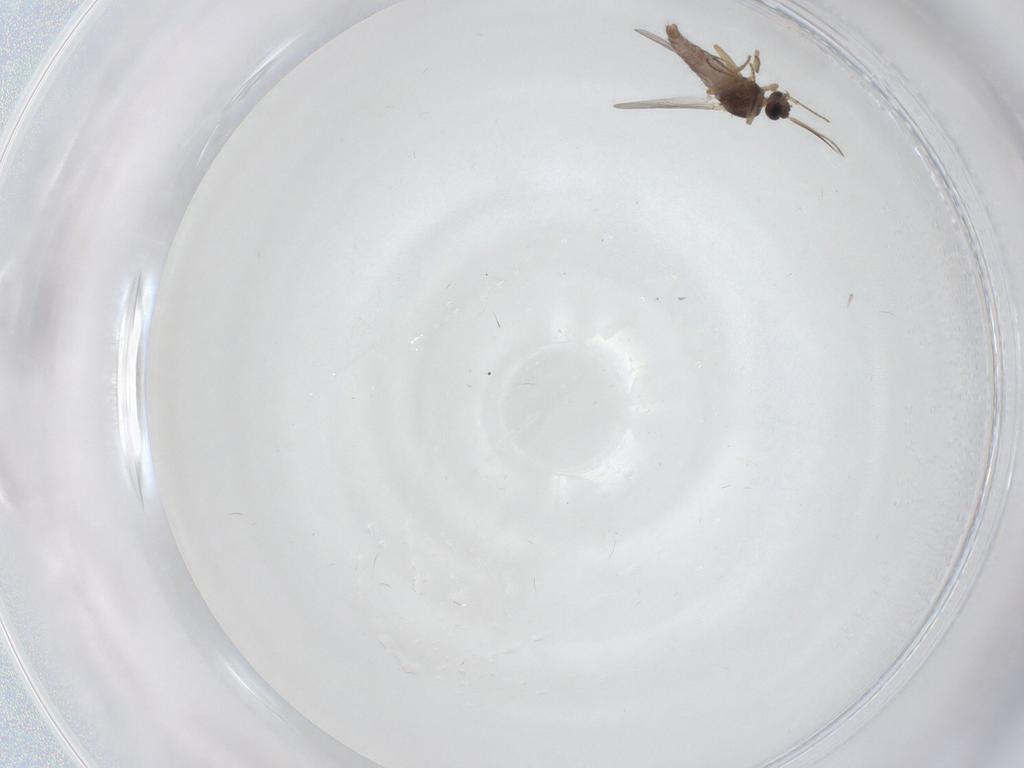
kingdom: Animalia
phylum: Arthropoda
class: Insecta
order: Diptera
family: Ceratopogonidae
